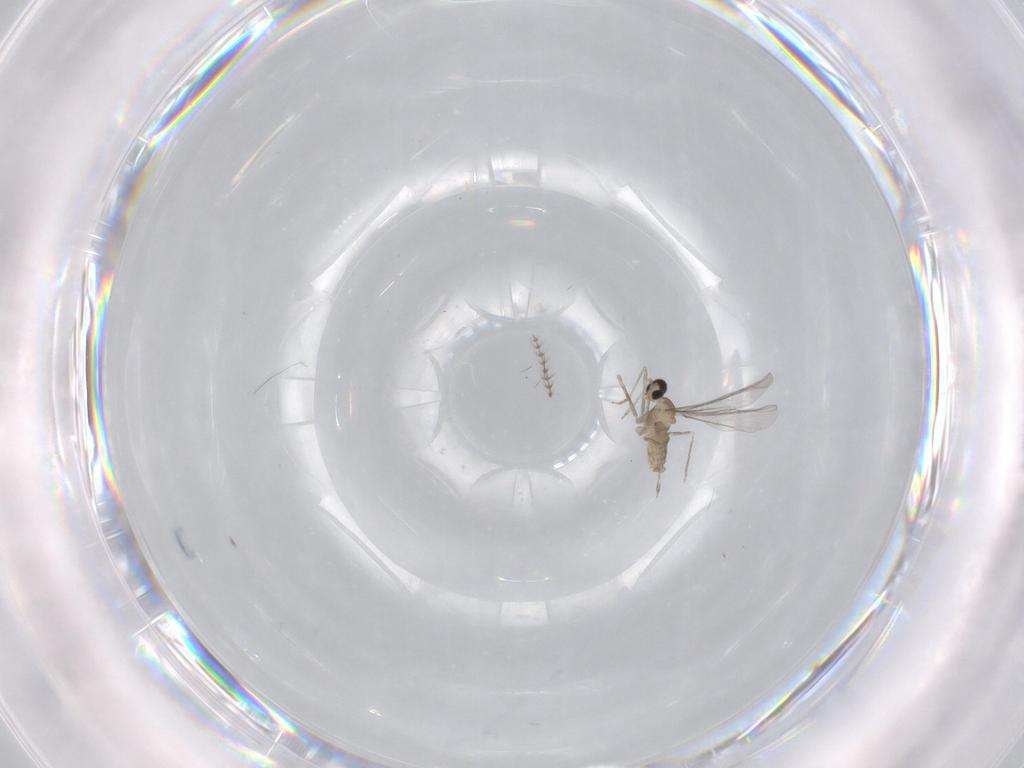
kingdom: Animalia
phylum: Arthropoda
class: Insecta
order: Diptera
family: Cecidomyiidae
